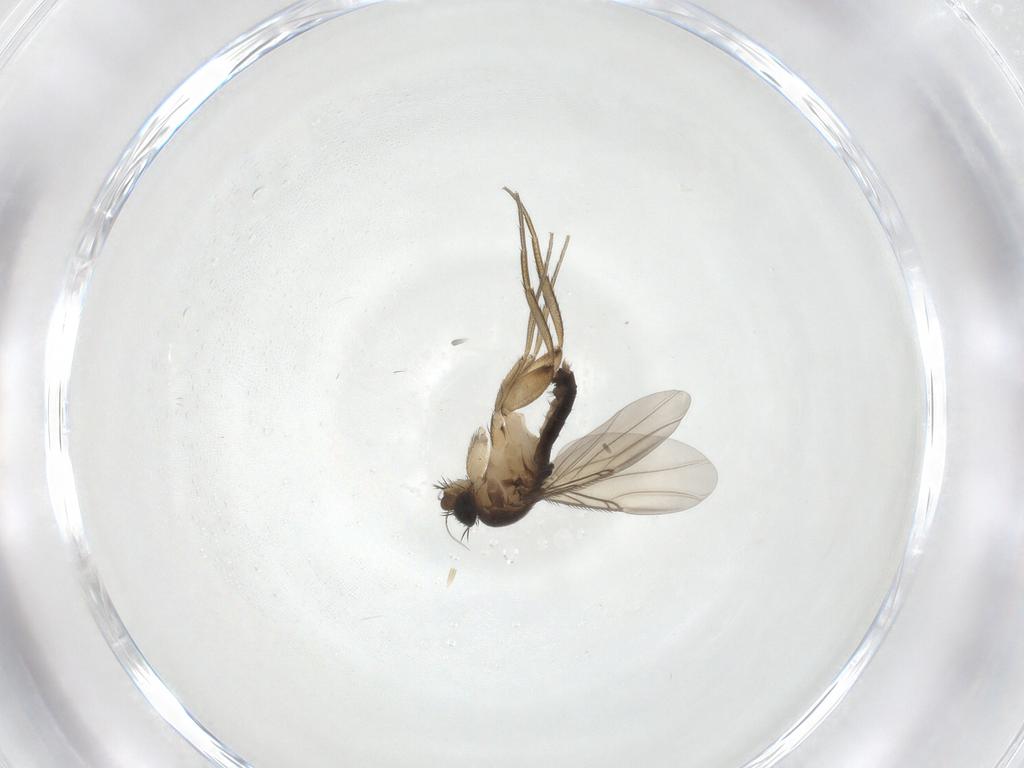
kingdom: Animalia
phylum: Arthropoda
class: Insecta
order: Diptera
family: Phoridae
